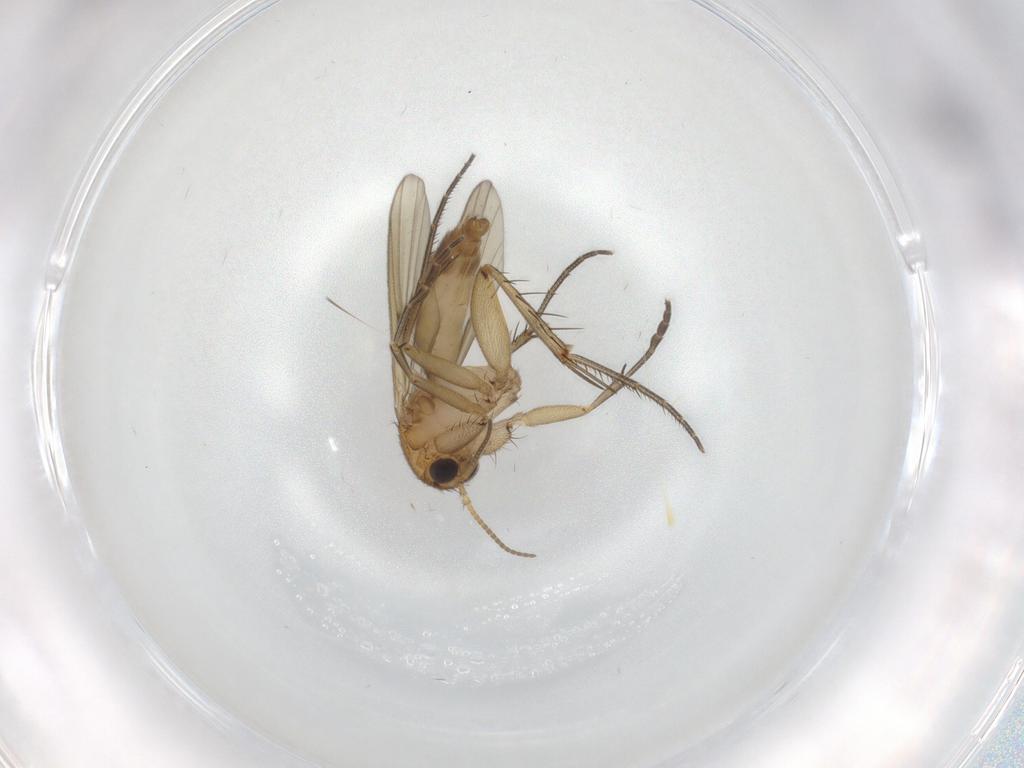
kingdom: Animalia
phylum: Arthropoda
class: Insecta
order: Diptera
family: Mycetophilidae
